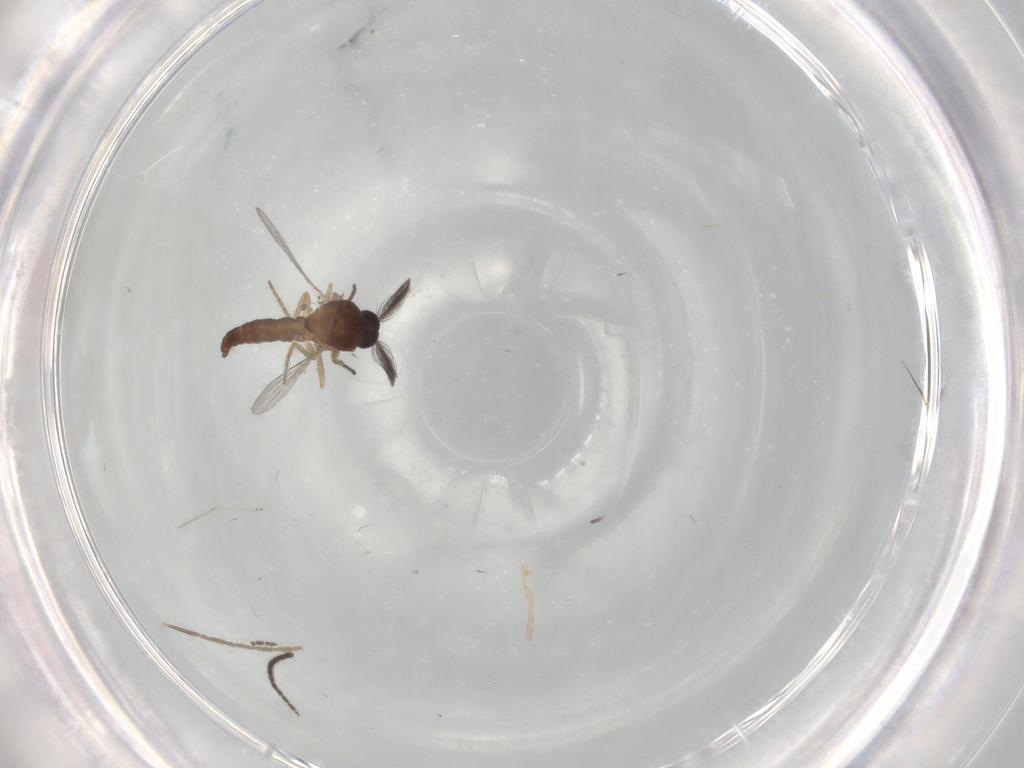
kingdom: Animalia
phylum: Arthropoda
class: Insecta
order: Diptera
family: Ceratopogonidae
